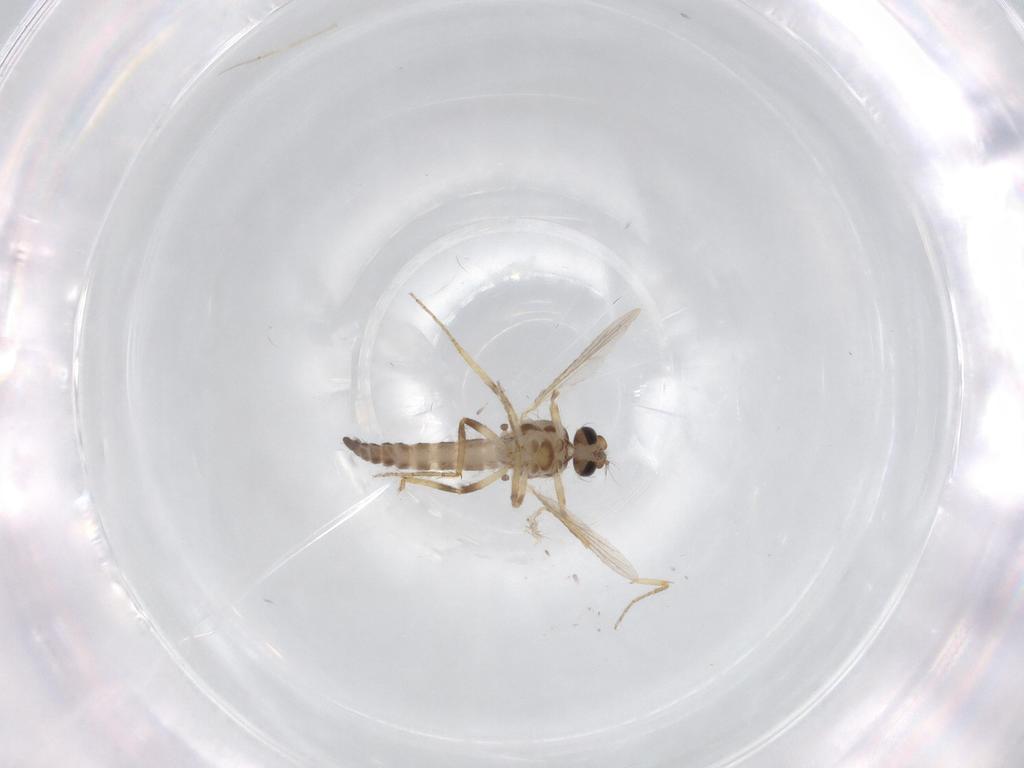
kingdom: Animalia
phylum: Arthropoda
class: Insecta
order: Diptera
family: Ceratopogonidae
